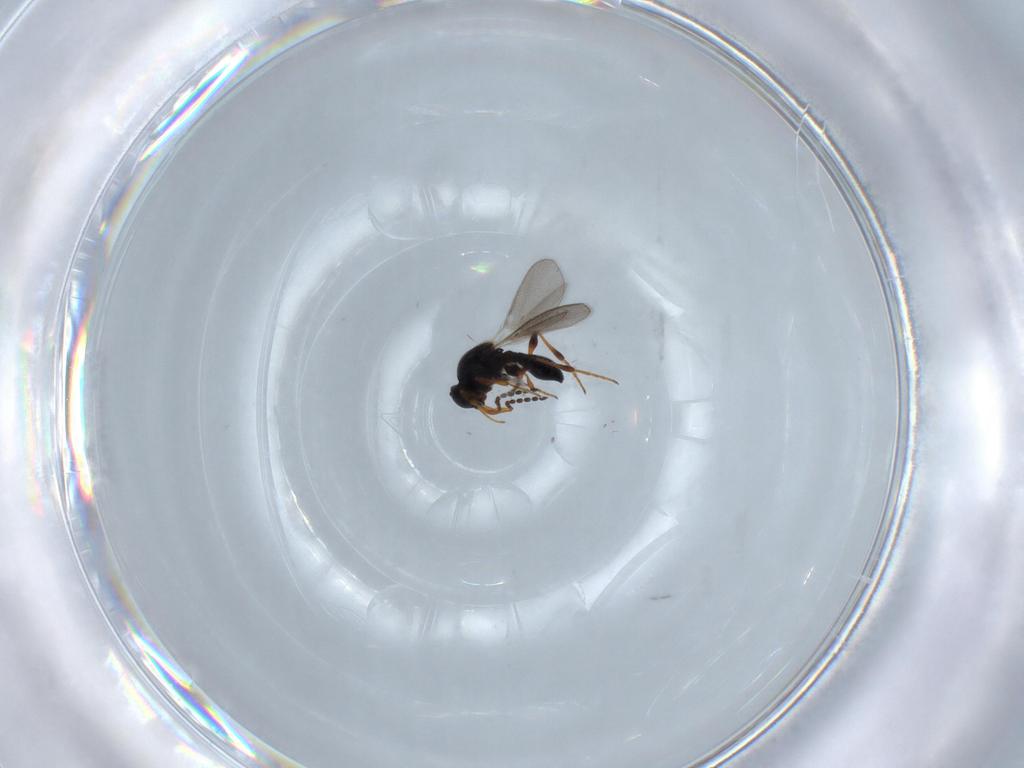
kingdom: Animalia
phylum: Arthropoda
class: Insecta
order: Hymenoptera
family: Platygastridae
